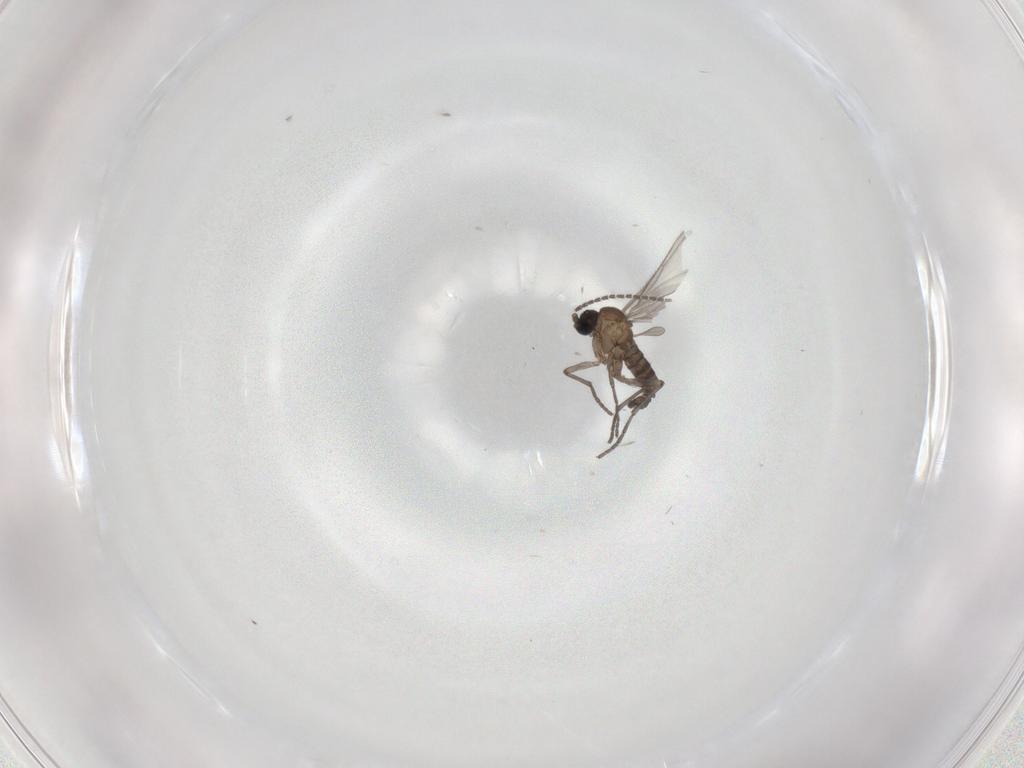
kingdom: Animalia
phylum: Arthropoda
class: Insecta
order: Diptera
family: Sciaridae
